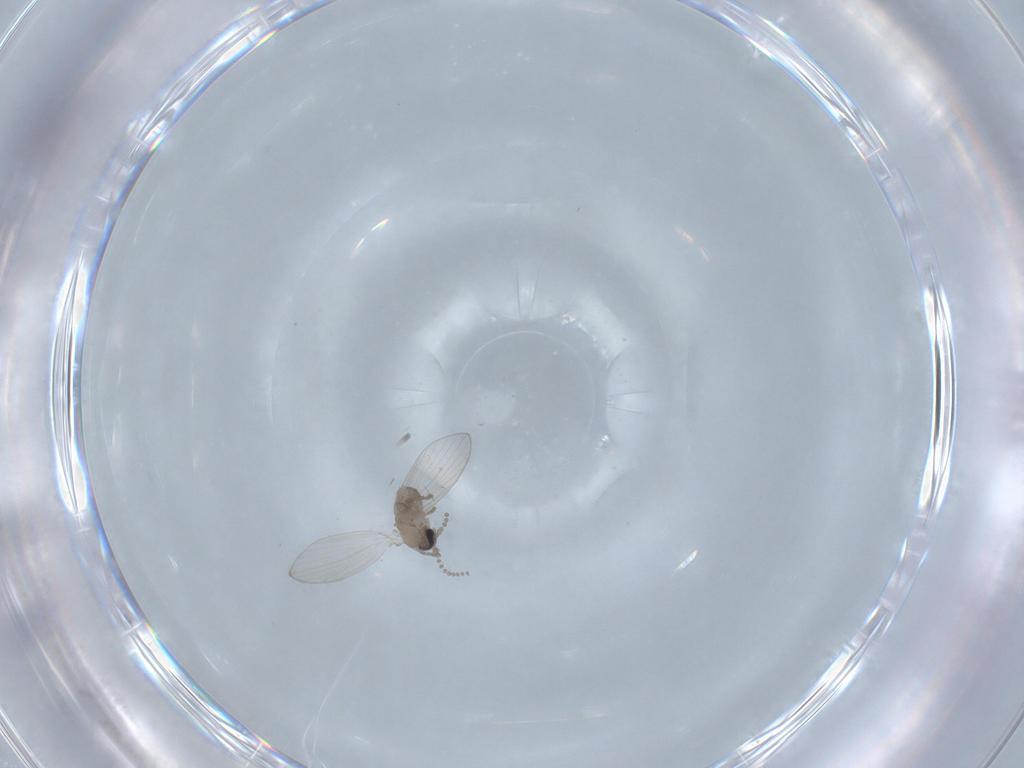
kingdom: Animalia
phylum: Arthropoda
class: Insecta
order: Diptera
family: Psychodidae
